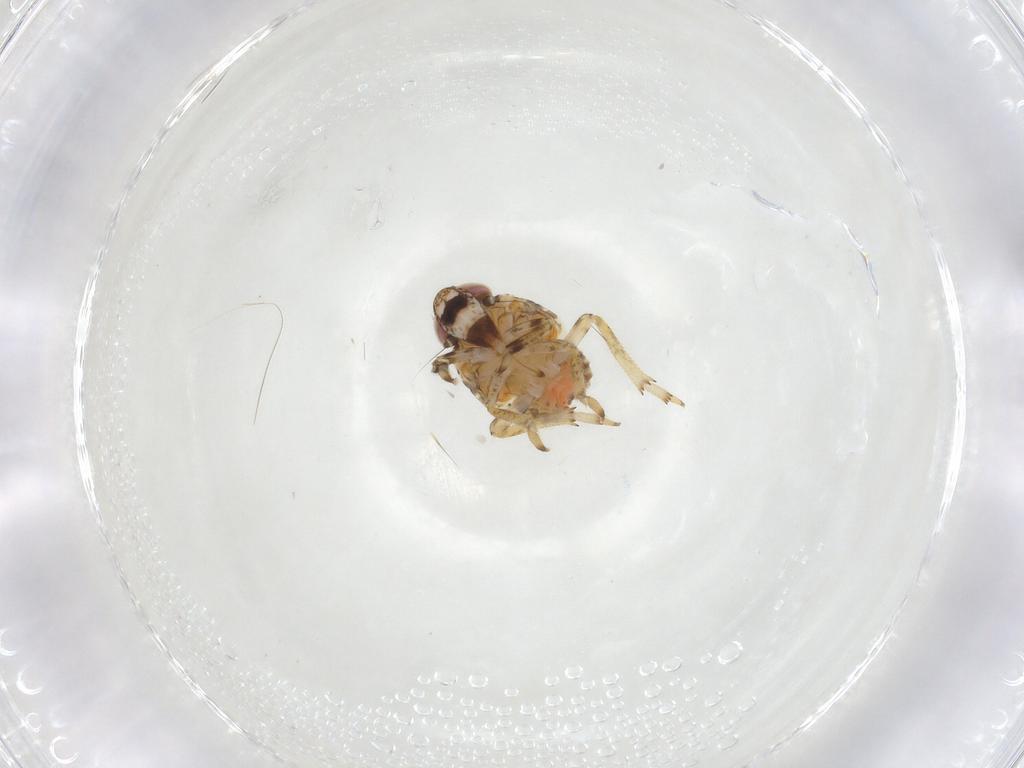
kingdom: Animalia
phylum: Arthropoda
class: Insecta
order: Hemiptera
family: Issidae
